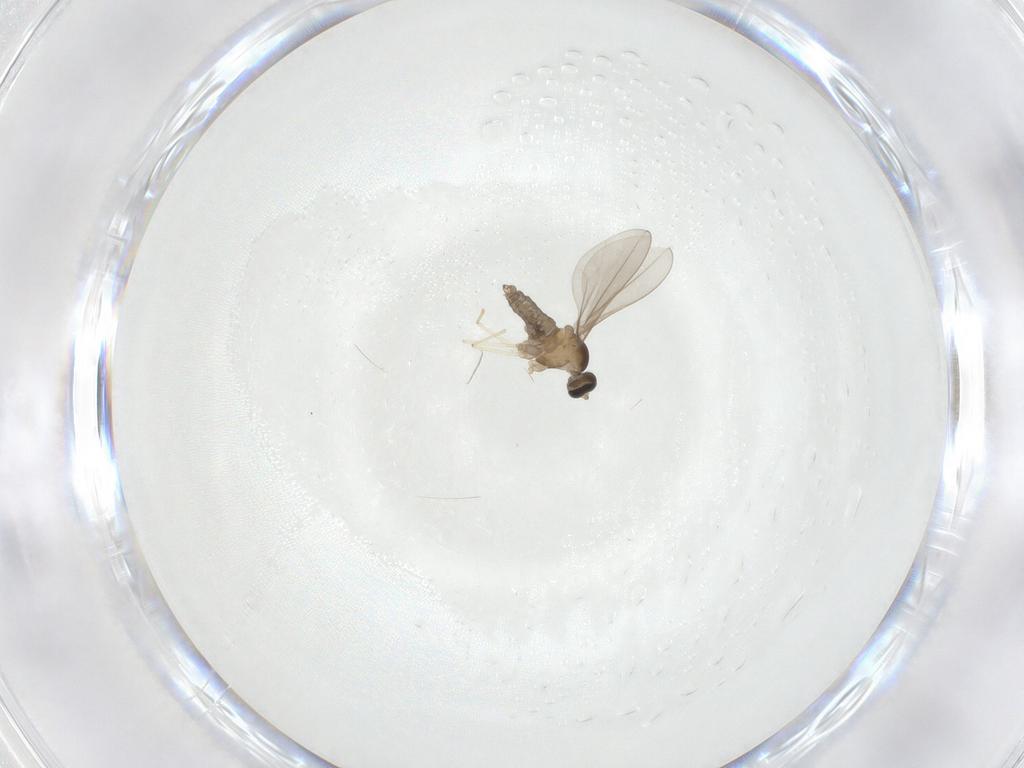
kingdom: Animalia
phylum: Arthropoda
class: Insecta
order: Diptera
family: Cecidomyiidae
